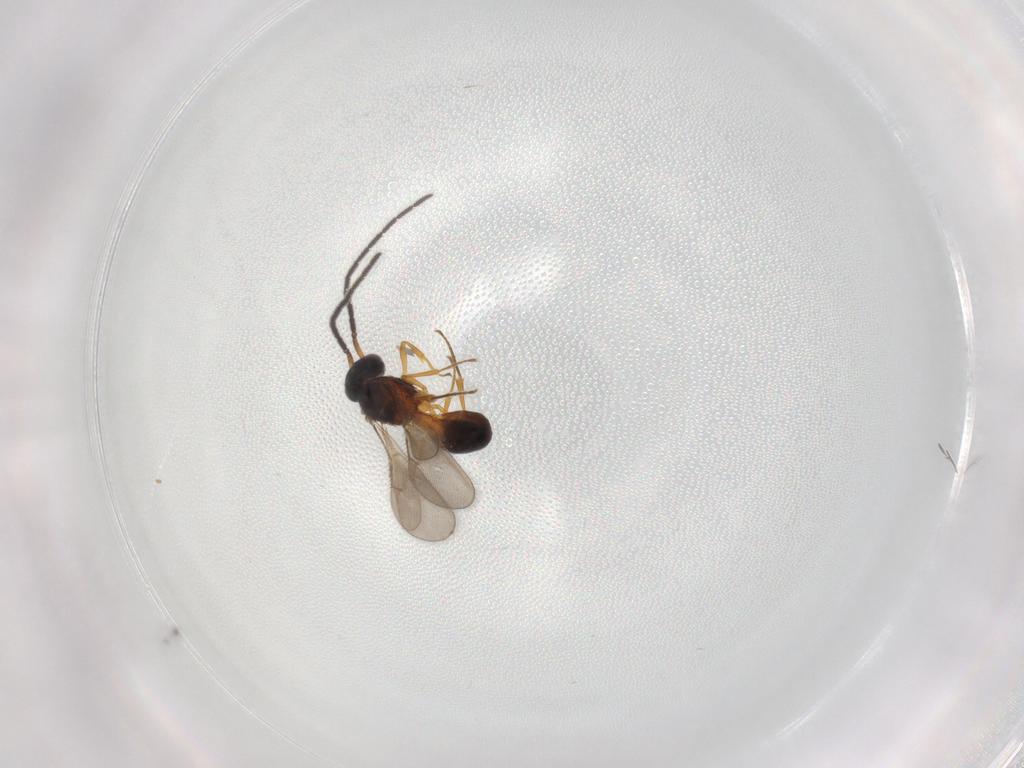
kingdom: Animalia
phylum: Arthropoda
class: Insecta
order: Hymenoptera
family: Scelionidae
